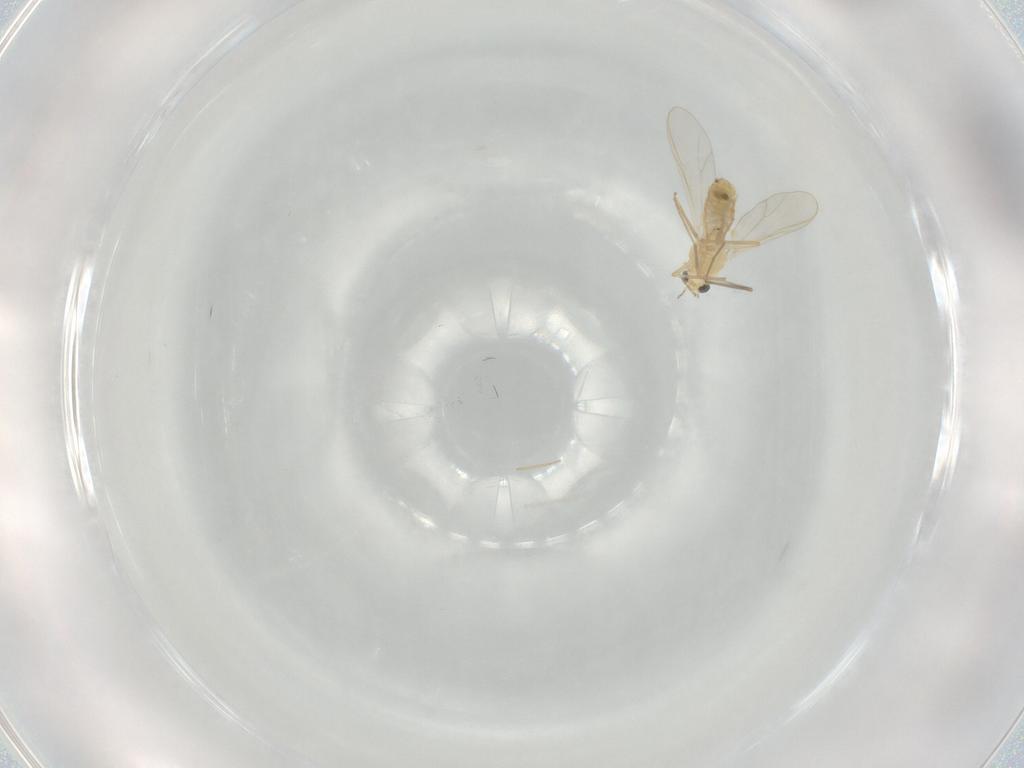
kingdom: Animalia
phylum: Arthropoda
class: Insecta
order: Diptera
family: Chironomidae
